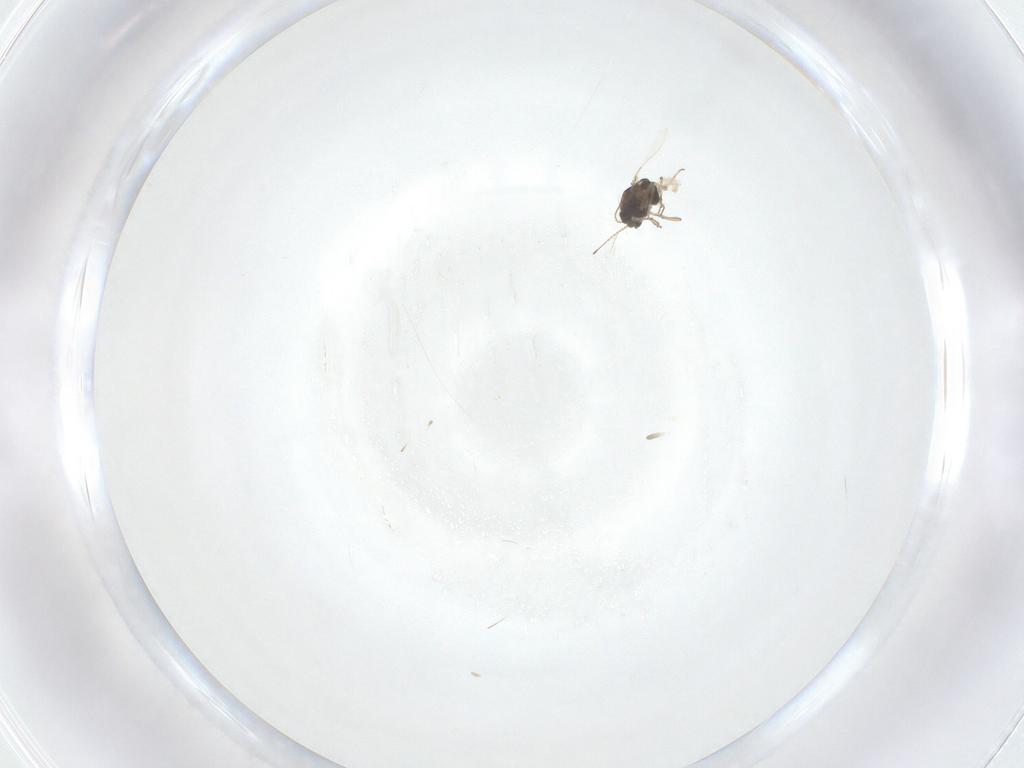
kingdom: Animalia
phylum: Arthropoda
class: Insecta
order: Diptera
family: Chironomidae
